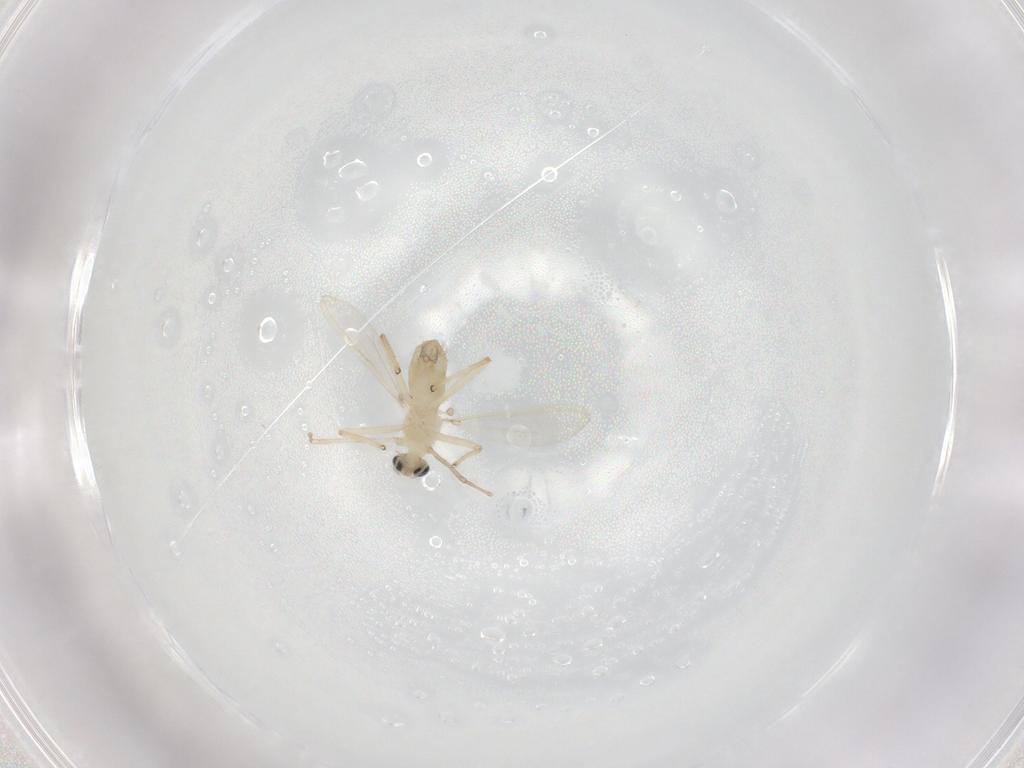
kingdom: Animalia
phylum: Arthropoda
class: Insecta
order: Diptera
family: Chironomidae
